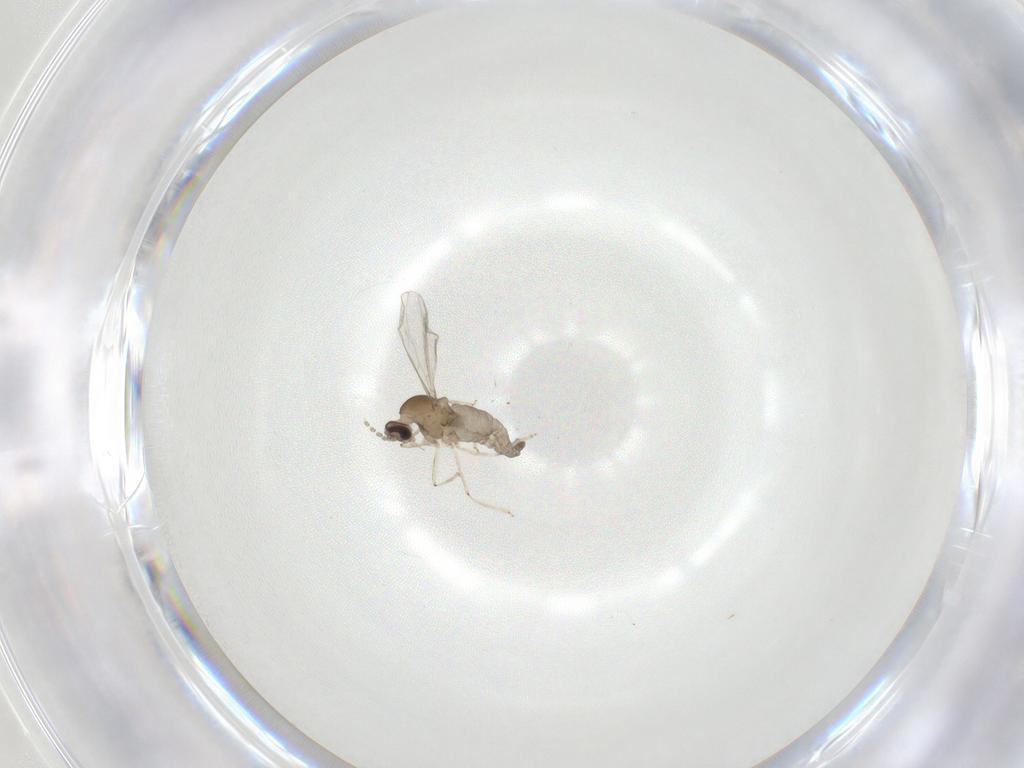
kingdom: Animalia
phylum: Arthropoda
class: Insecta
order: Diptera
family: Cecidomyiidae
